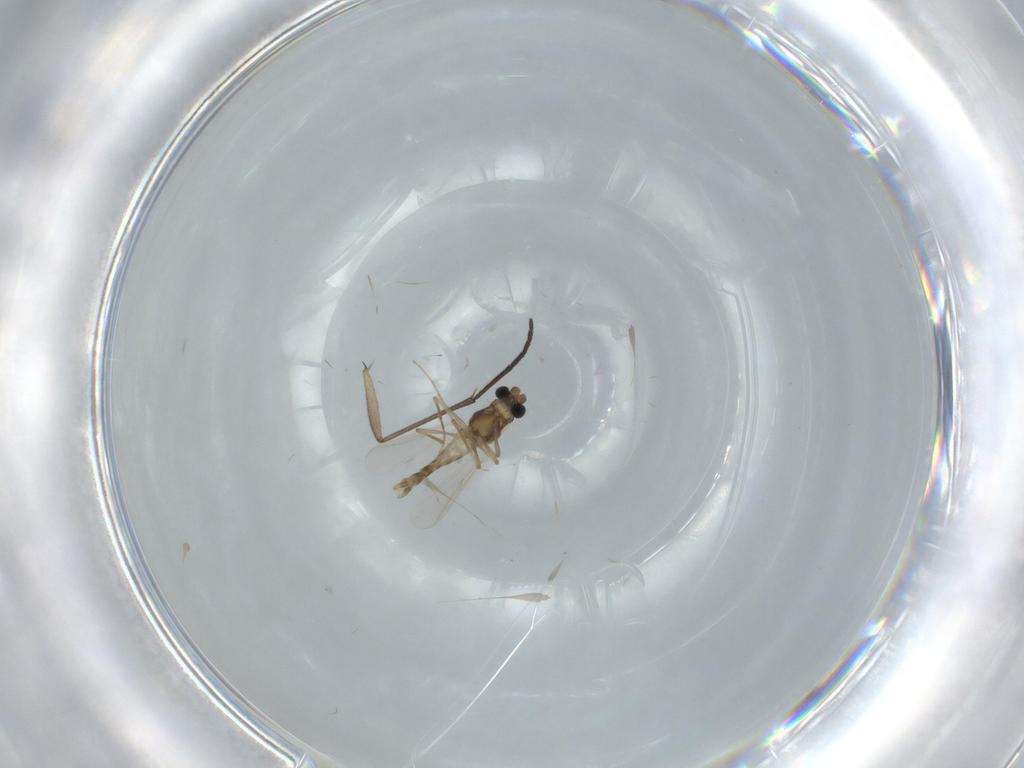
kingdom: Animalia
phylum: Arthropoda
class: Insecta
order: Diptera
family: Chironomidae
